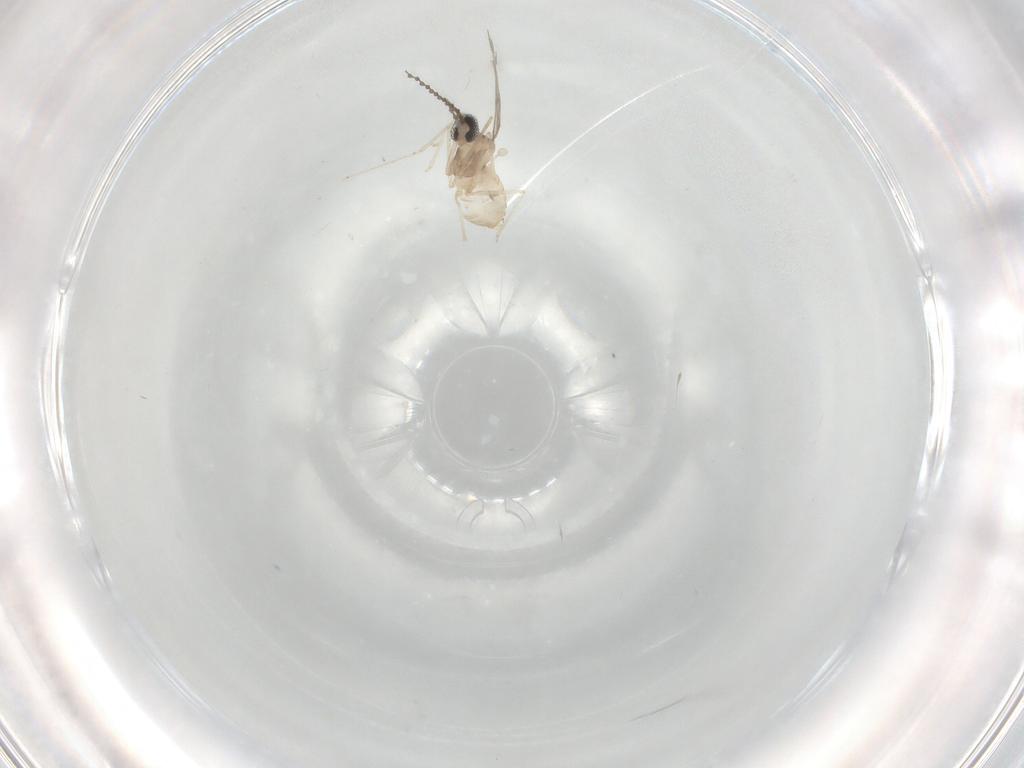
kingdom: Animalia
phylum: Arthropoda
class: Insecta
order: Diptera
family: Cecidomyiidae
